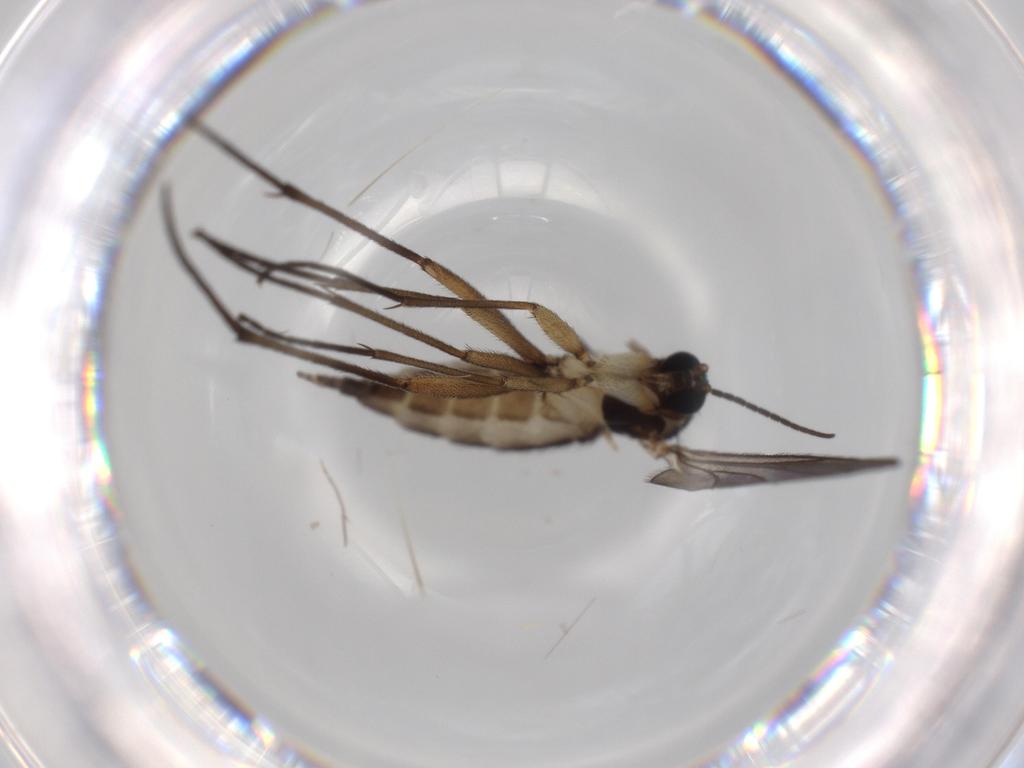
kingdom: Animalia
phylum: Arthropoda
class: Insecta
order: Diptera
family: Sciaridae
